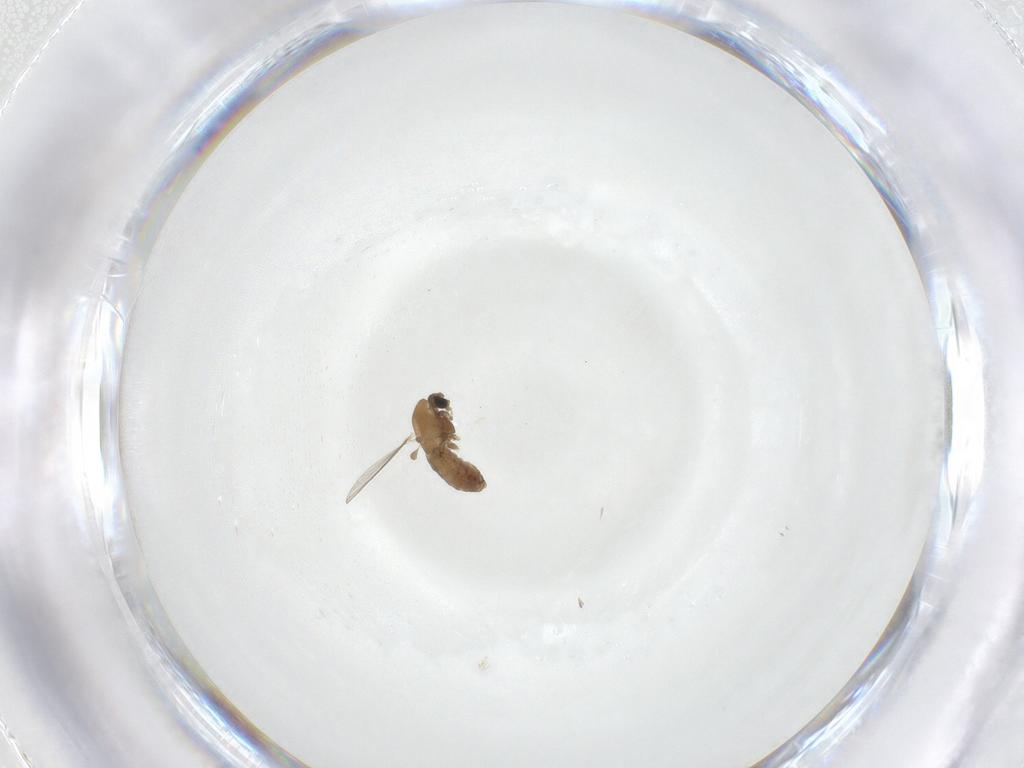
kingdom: Animalia
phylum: Arthropoda
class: Insecta
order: Diptera
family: Chironomidae
